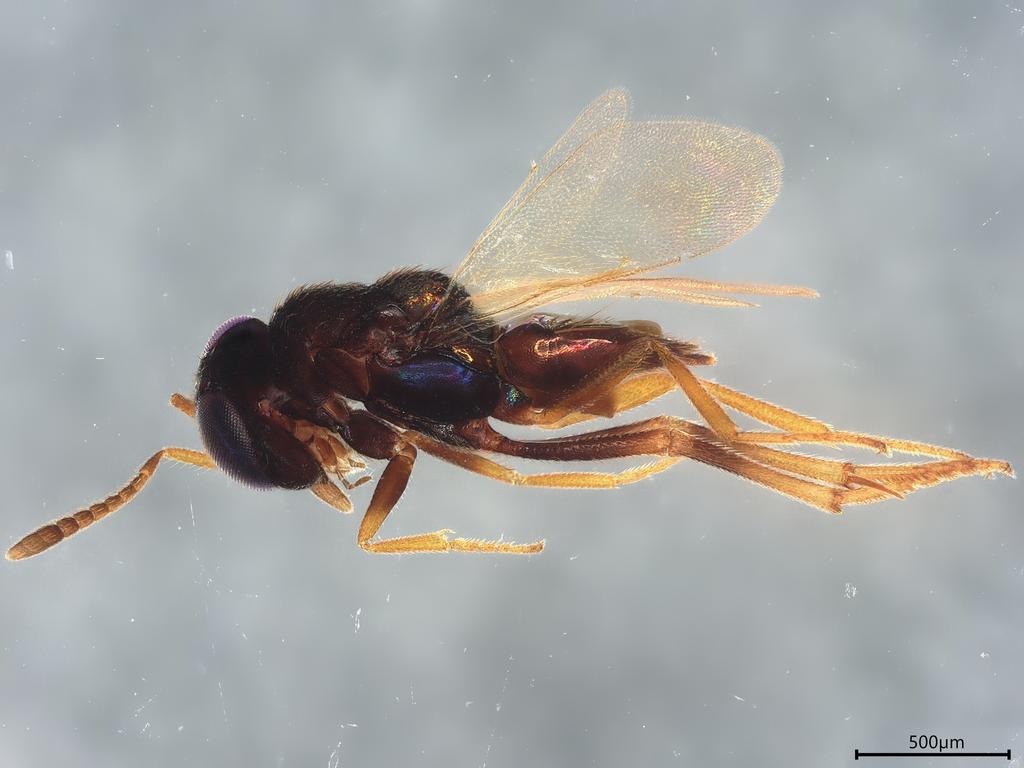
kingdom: Animalia
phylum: Arthropoda
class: Insecta
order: Hymenoptera
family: Encyrtidae
